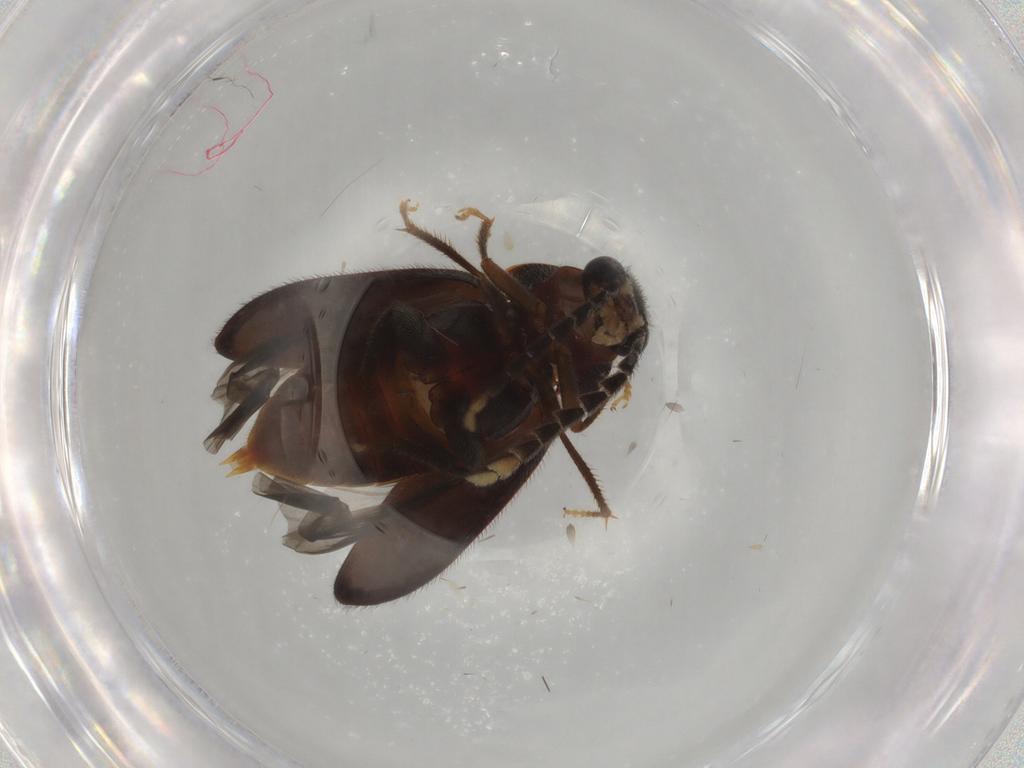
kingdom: Animalia
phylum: Arthropoda
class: Insecta
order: Coleoptera
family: Ptilodactylidae
